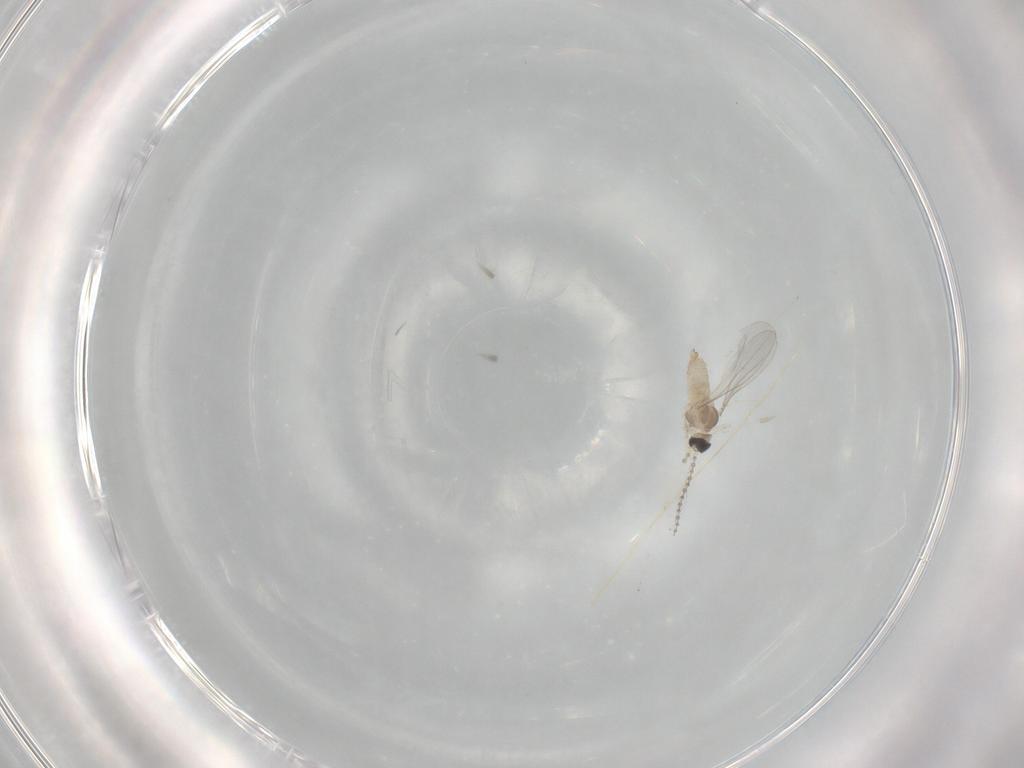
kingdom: Animalia
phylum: Arthropoda
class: Insecta
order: Diptera
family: Cecidomyiidae
